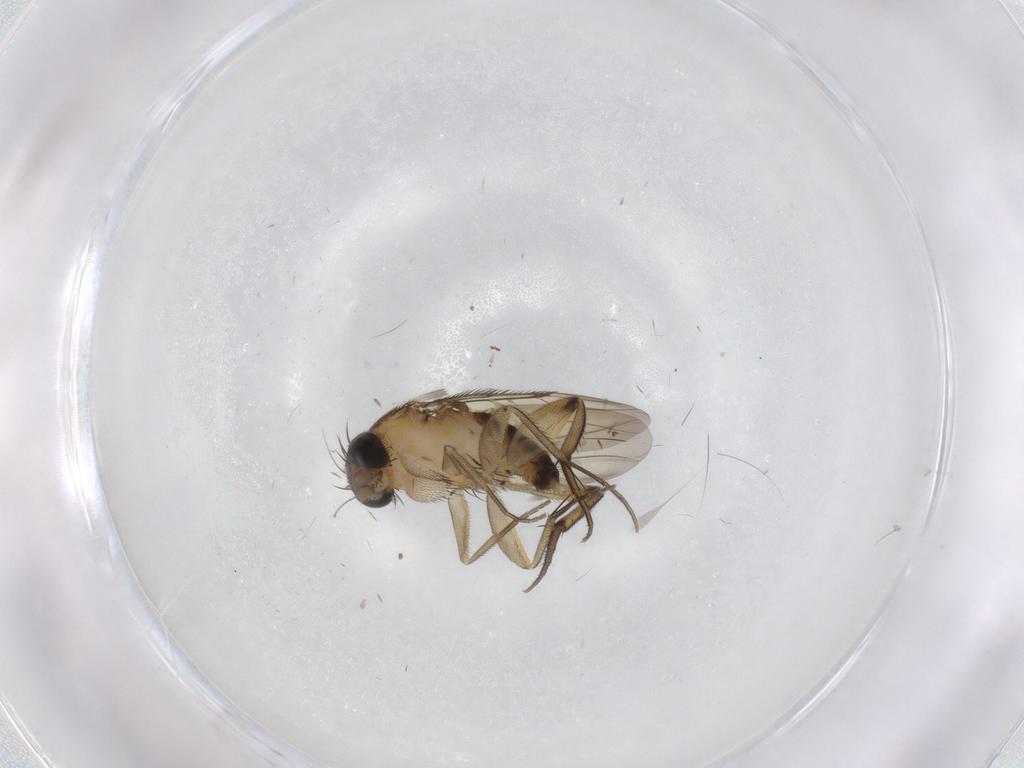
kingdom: Animalia
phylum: Arthropoda
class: Insecta
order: Diptera
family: Phoridae
